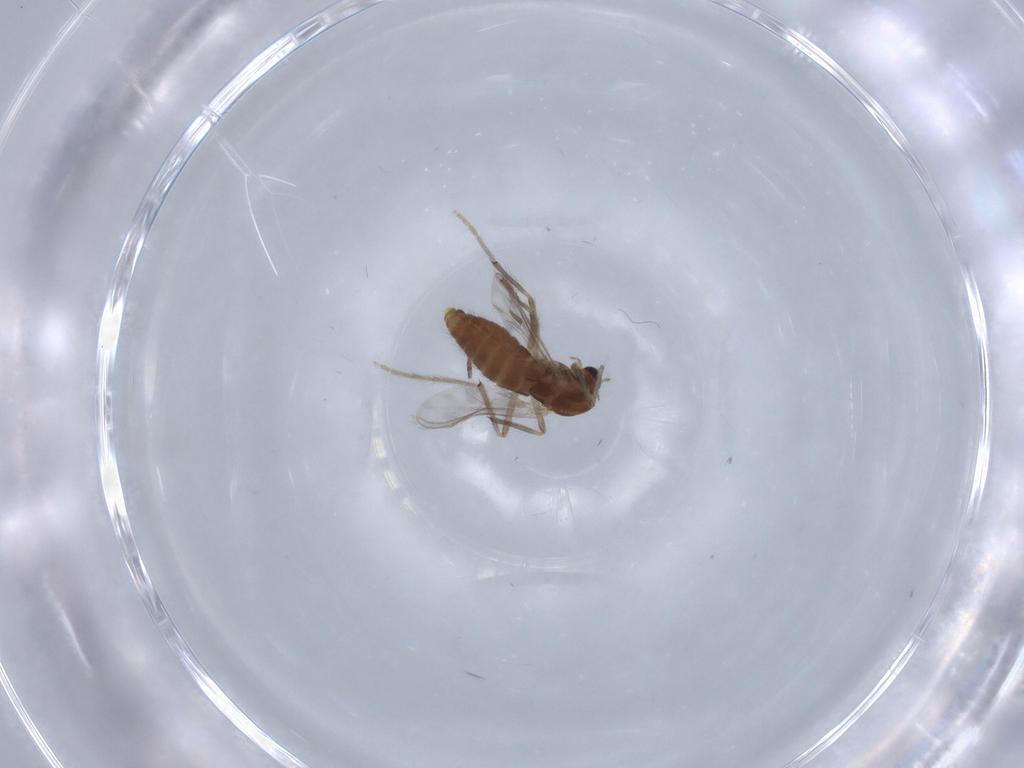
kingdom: Animalia
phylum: Arthropoda
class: Insecta
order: Diptera
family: Chironomidae
